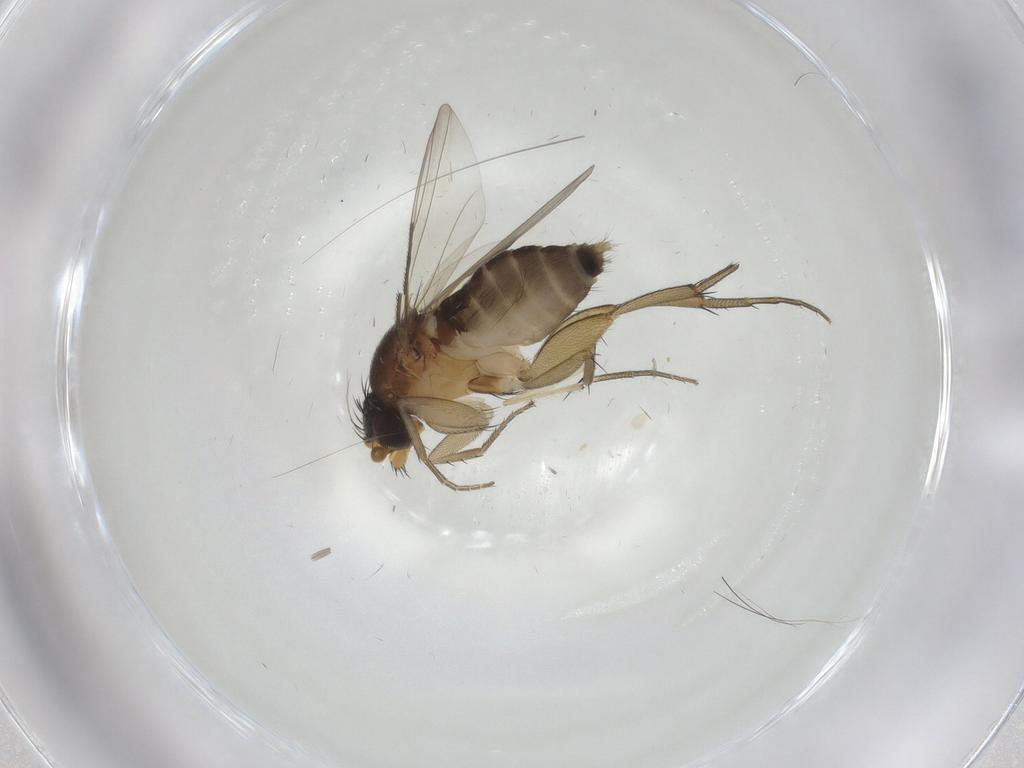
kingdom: Animalia
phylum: Arthropoda
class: Insecta
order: Diptera
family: Phoridae
